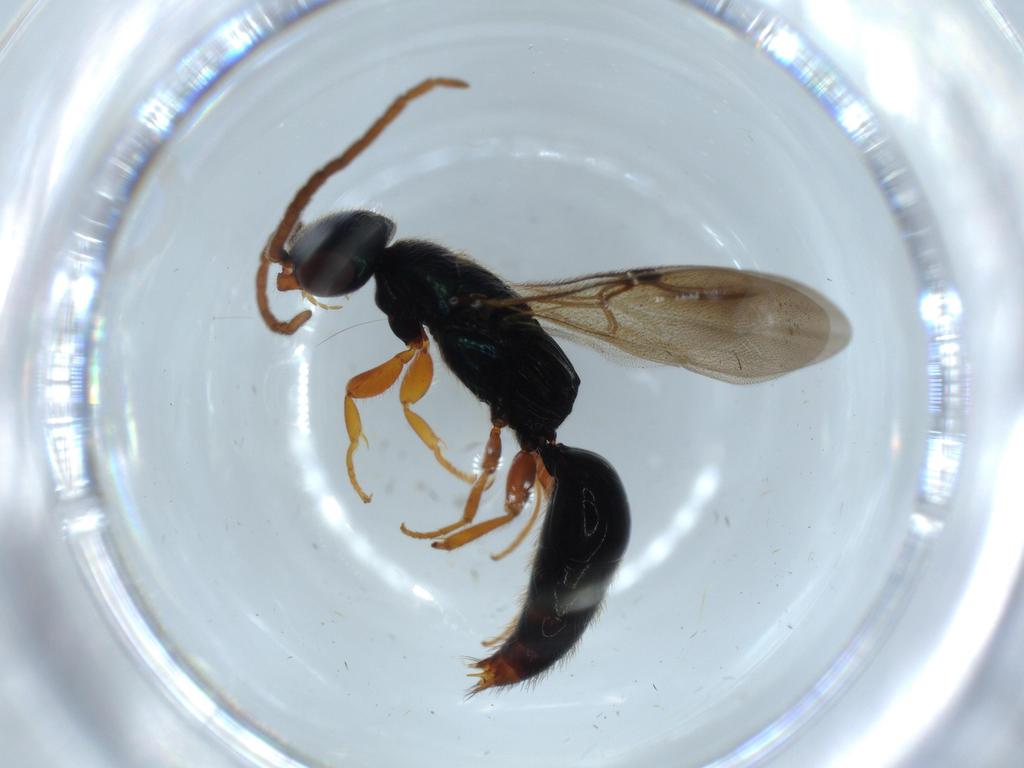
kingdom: Animalia
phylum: Arthropoda
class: Insecta
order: Hymenoptera
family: Bethylidae
